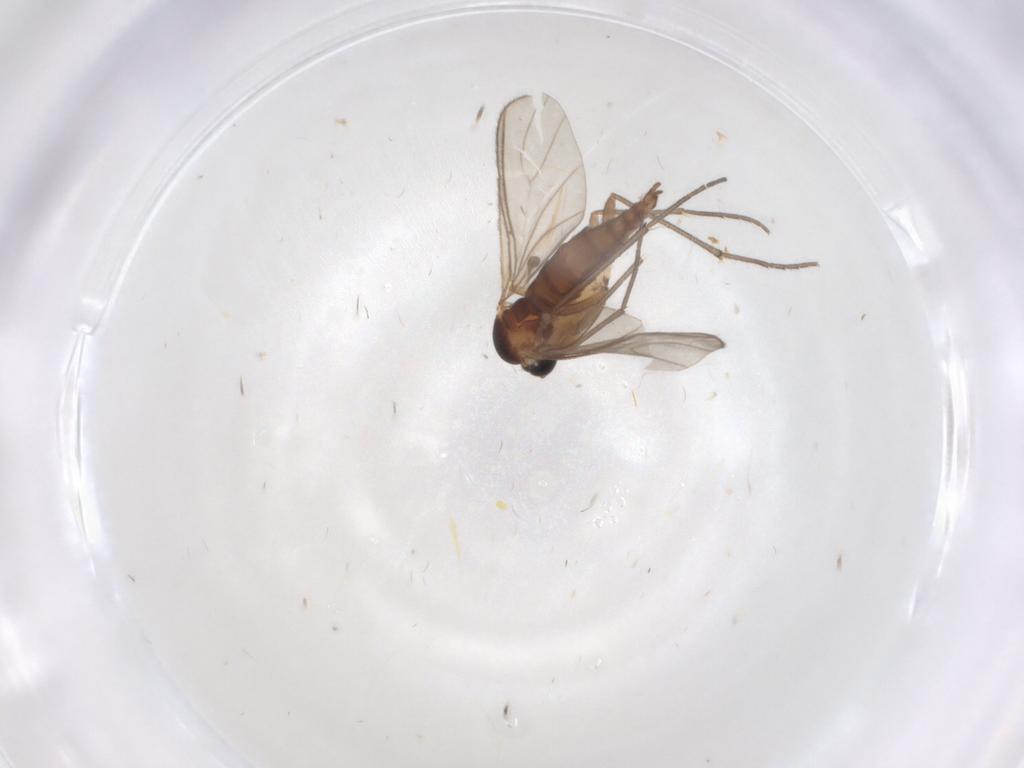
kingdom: Animalia
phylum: Arthropoda
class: Insecta
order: Diptera
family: Sciaridae
